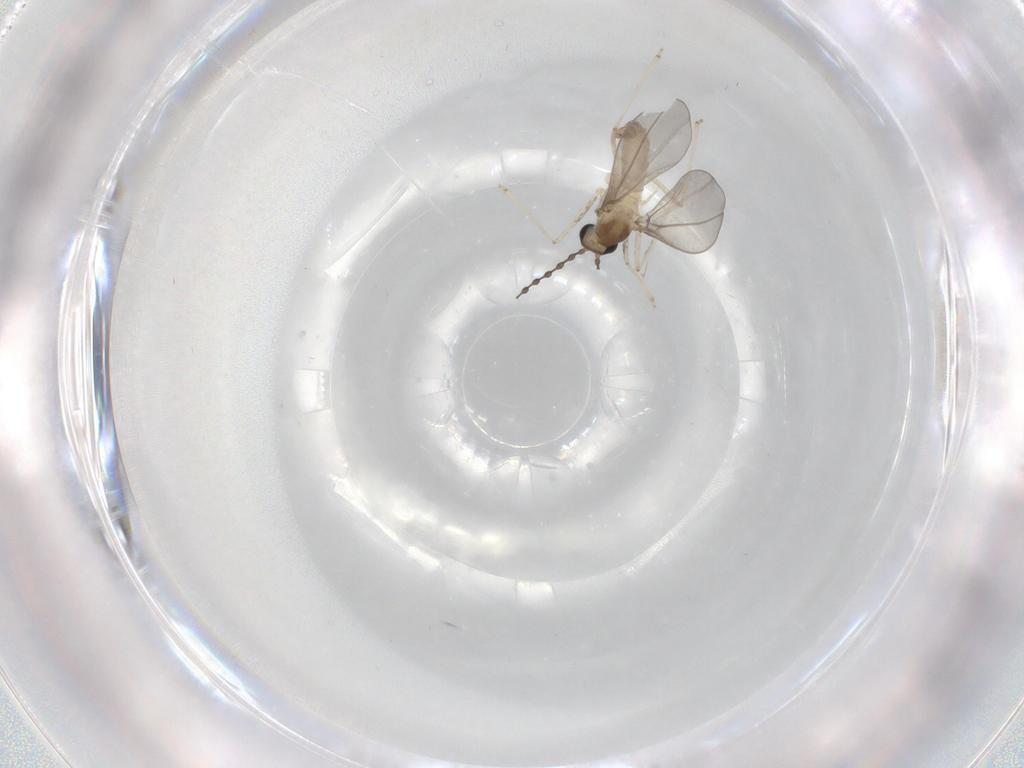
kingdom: Animalia
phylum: Arthropoda
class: Insecta
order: Diptera
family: Cecidomyiidae
